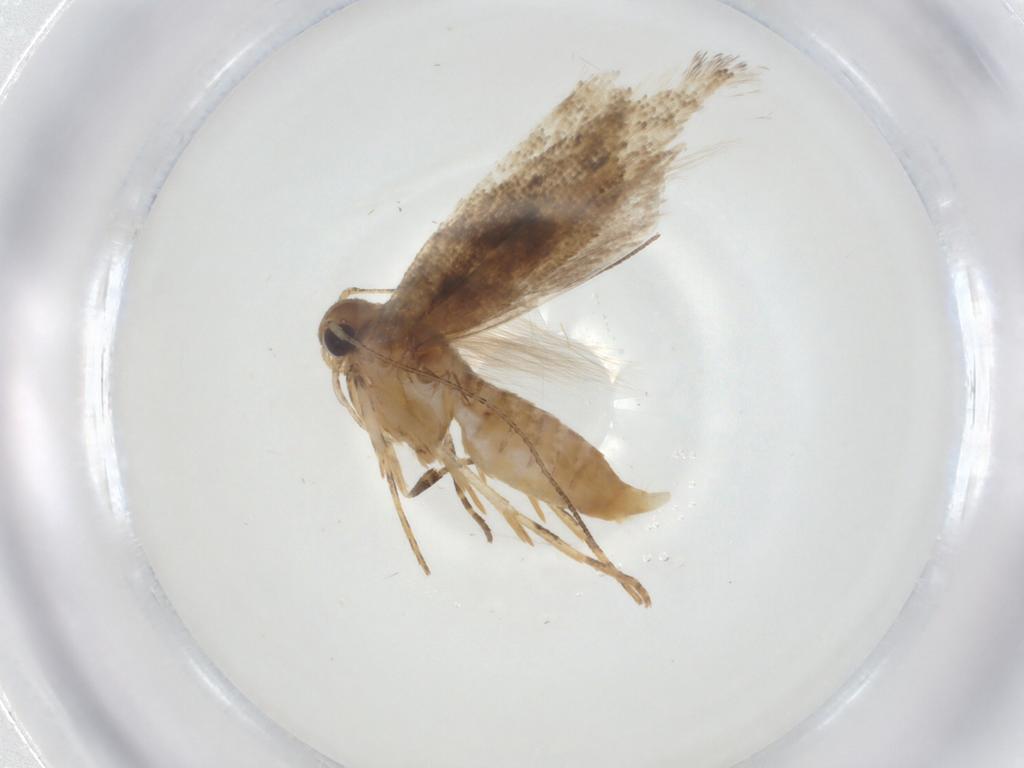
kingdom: Animalia
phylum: Arthropoda
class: Insecta
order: Lepidoptera
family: Gelechiidae
